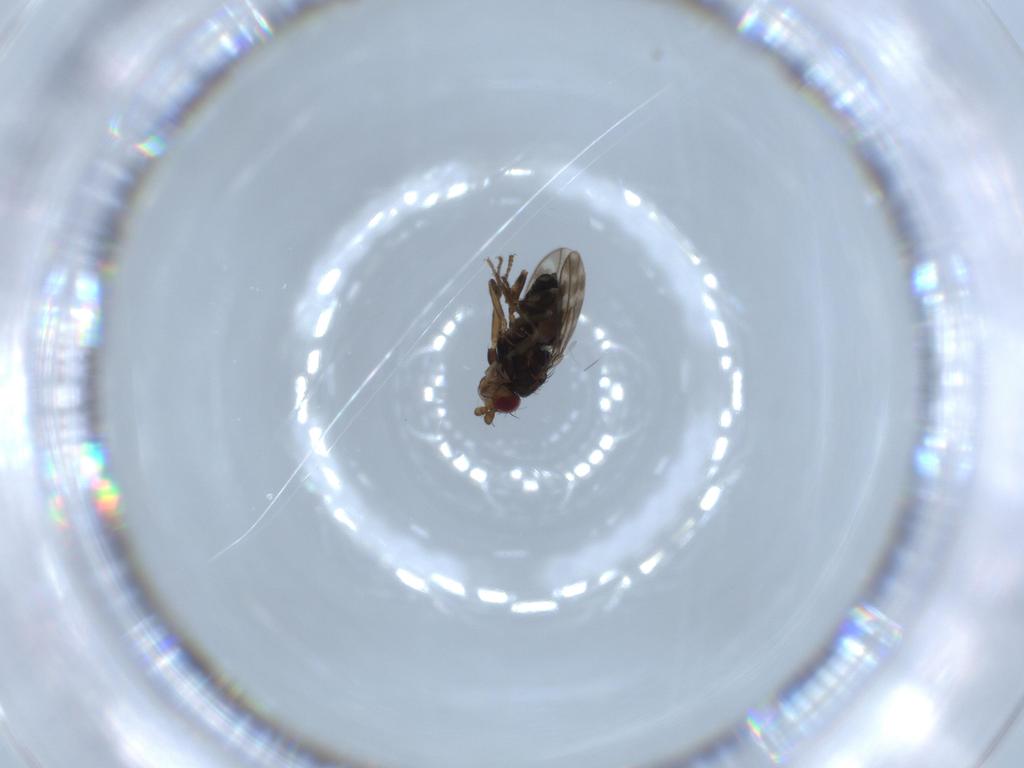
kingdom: Animalia
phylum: Arthropoda
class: Insecta
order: Diptera
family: Sphaeroceridae
